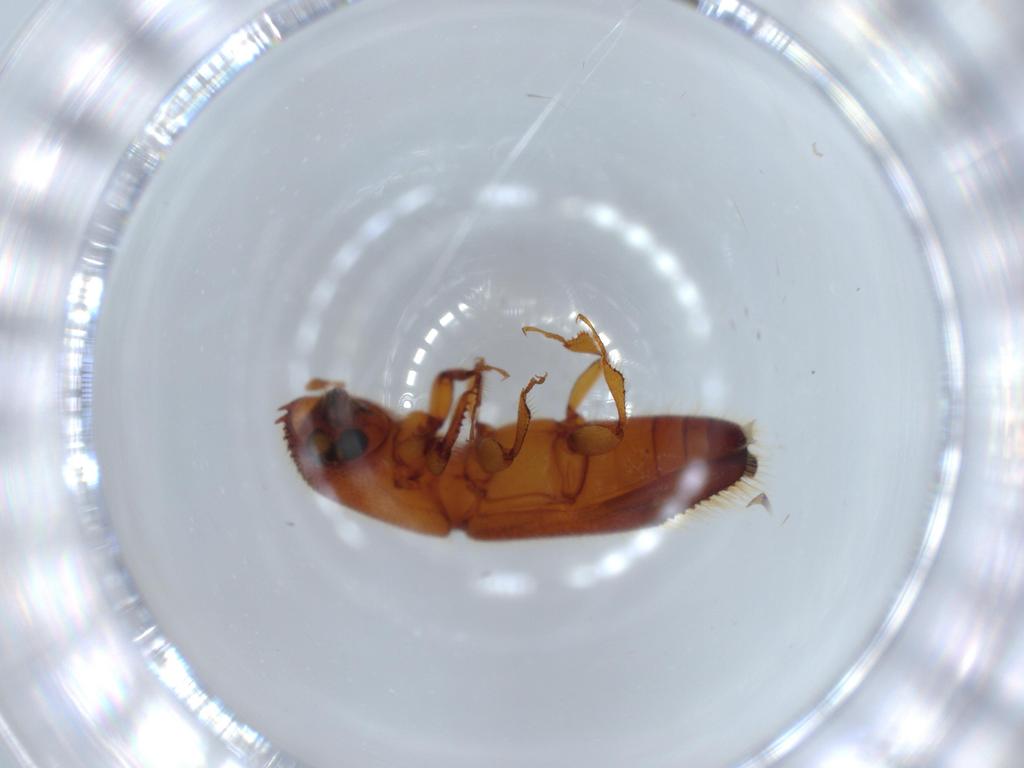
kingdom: Animalia
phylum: Arthropoda
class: Insecta
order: Coleoptera
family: Curculionidae
